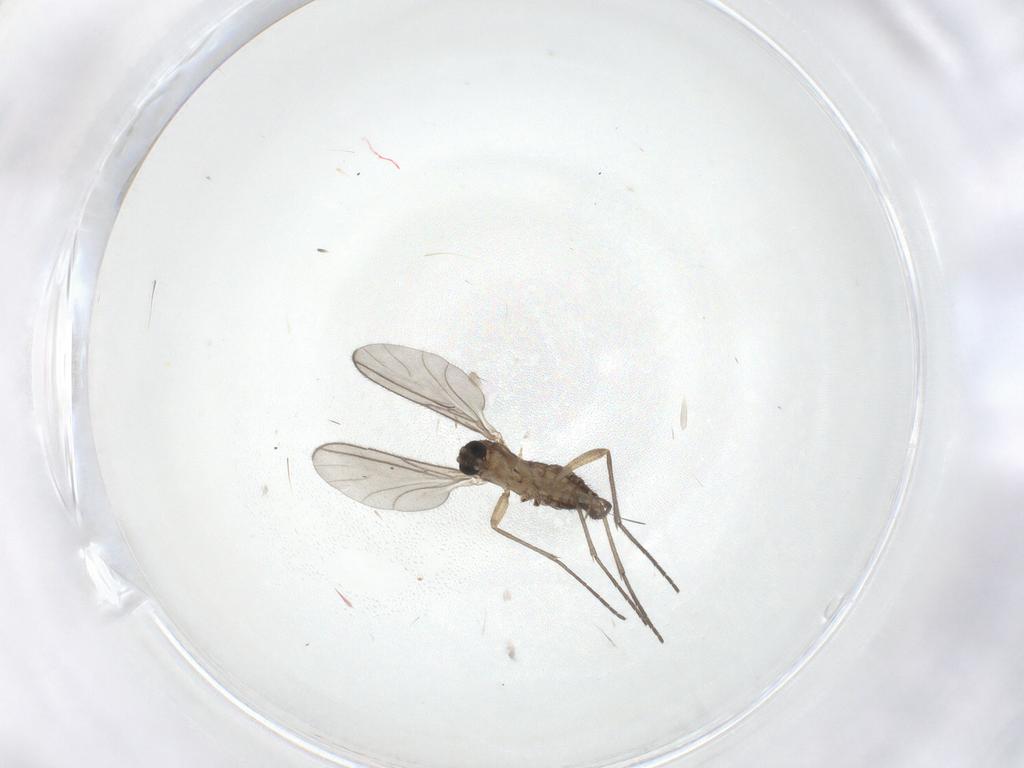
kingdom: Animalia
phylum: Arthropoda
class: Insecta
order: Diptera
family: Sciaridae
